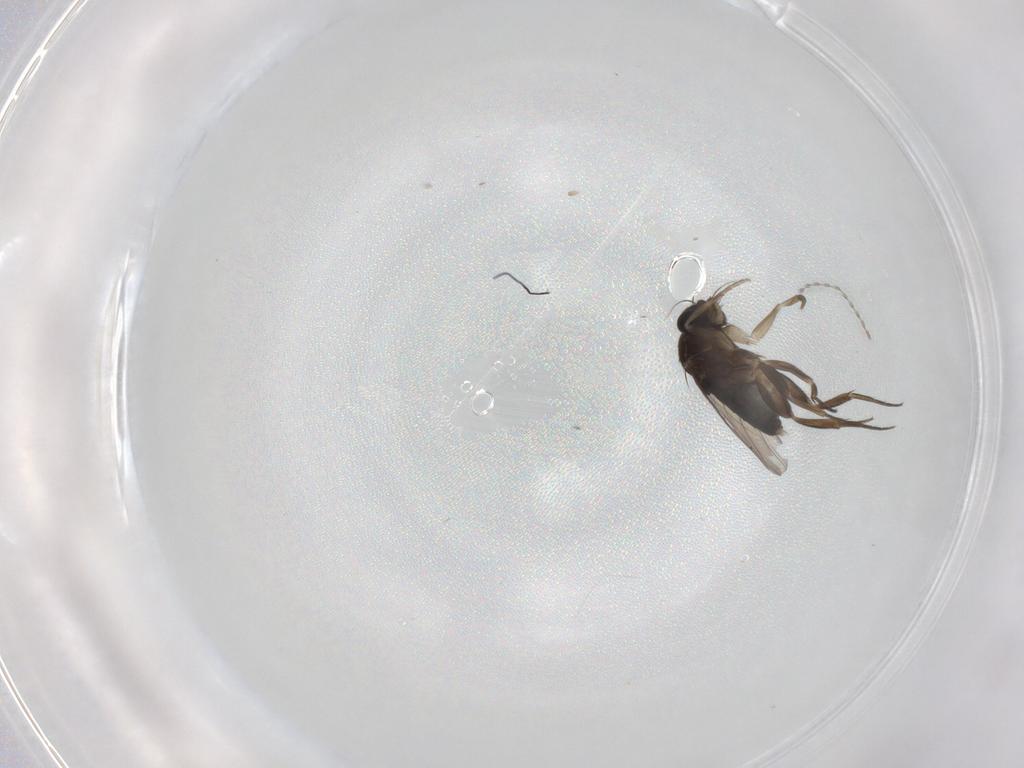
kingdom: Animalia
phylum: Arthropoda
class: Insecta
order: Diptera
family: Phoridae
